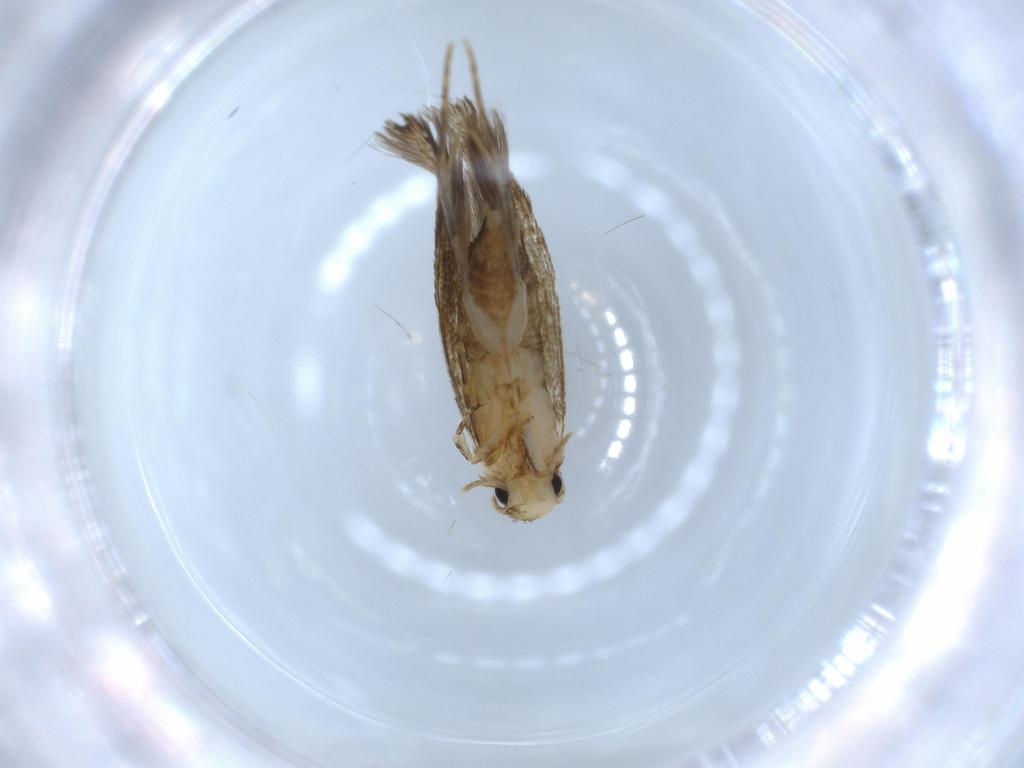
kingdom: Animalia
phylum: Arthropoda
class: Insecta
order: Lepidoptera
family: Tineidae
